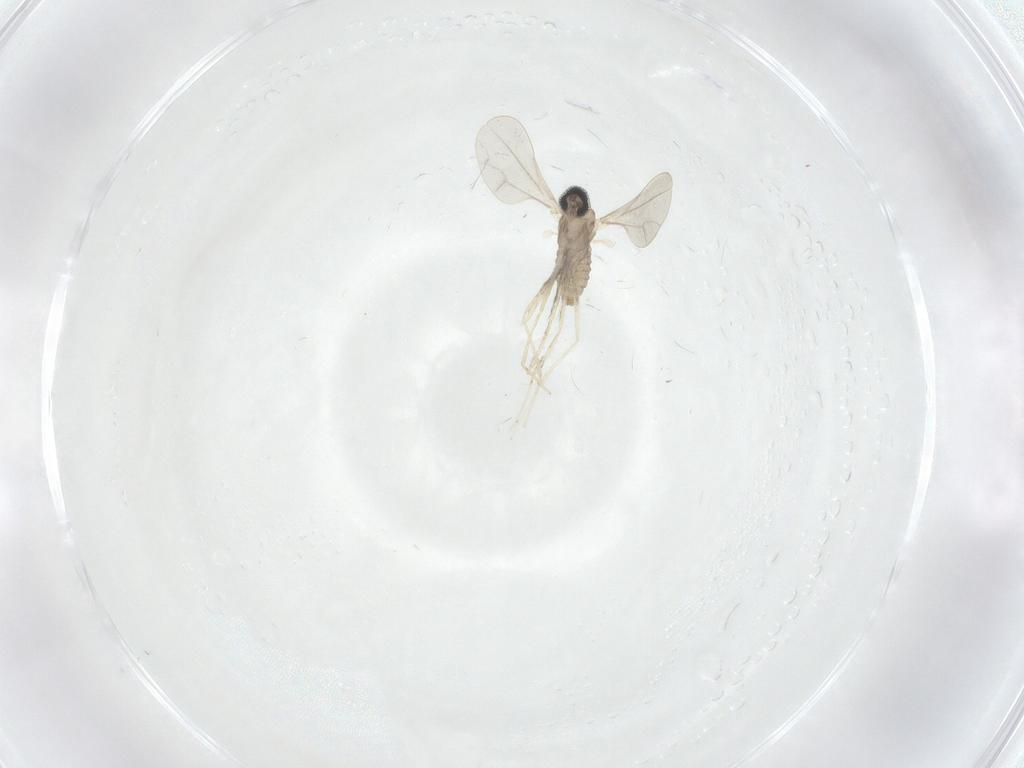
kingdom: Animalia
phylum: Arthropoda
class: Insecta
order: Diptera
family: Cecidomyiidae
